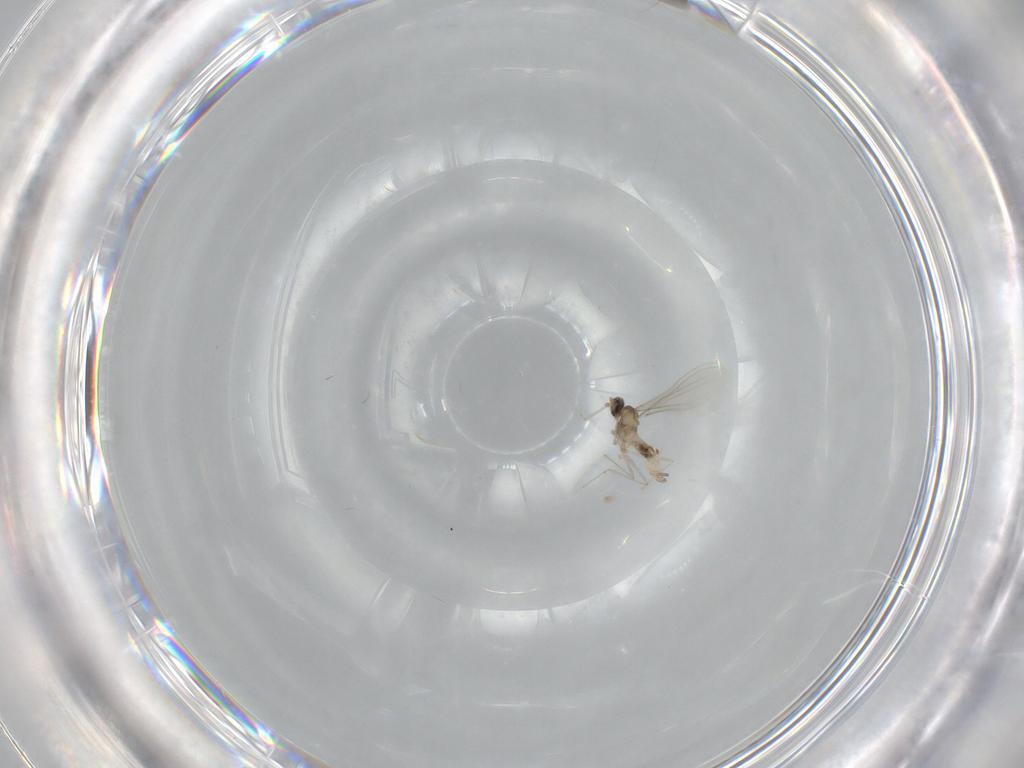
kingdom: Animalia
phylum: Arthropoda
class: Insecta
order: Diptera
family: Cecidomyiidae
